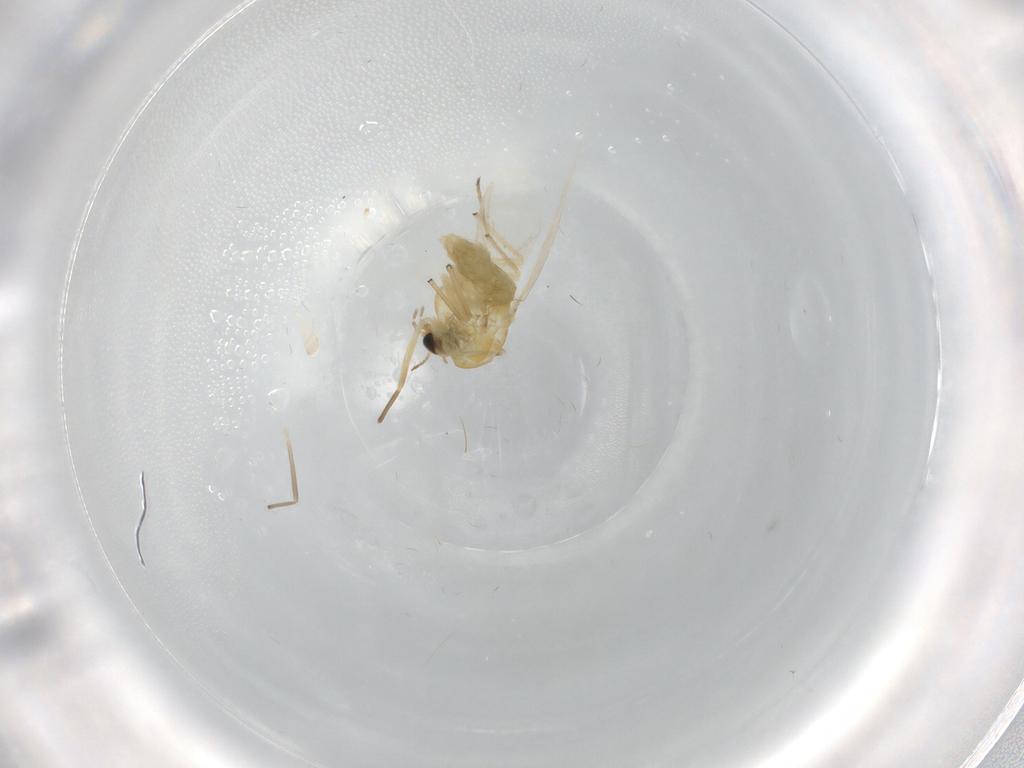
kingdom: Animalia
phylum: Arthropoda
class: Insecta
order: Diptera
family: Chironomidae
